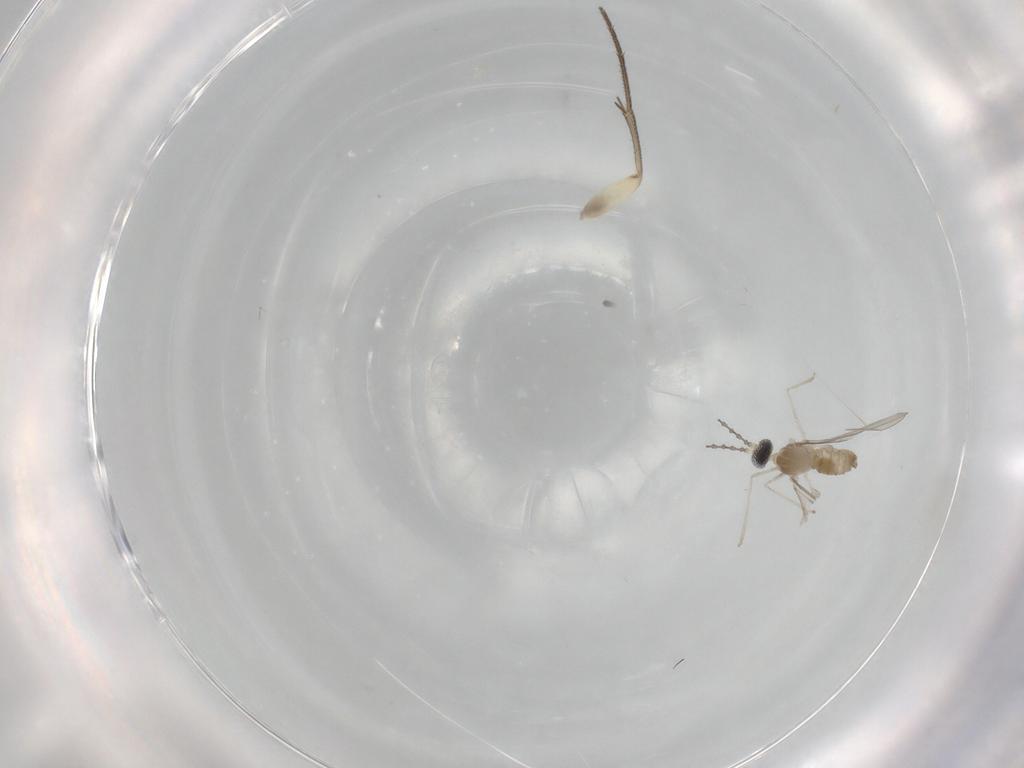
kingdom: Animalia
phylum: Arthropoda
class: Insecta
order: Diptera
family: Mycetophilidae
